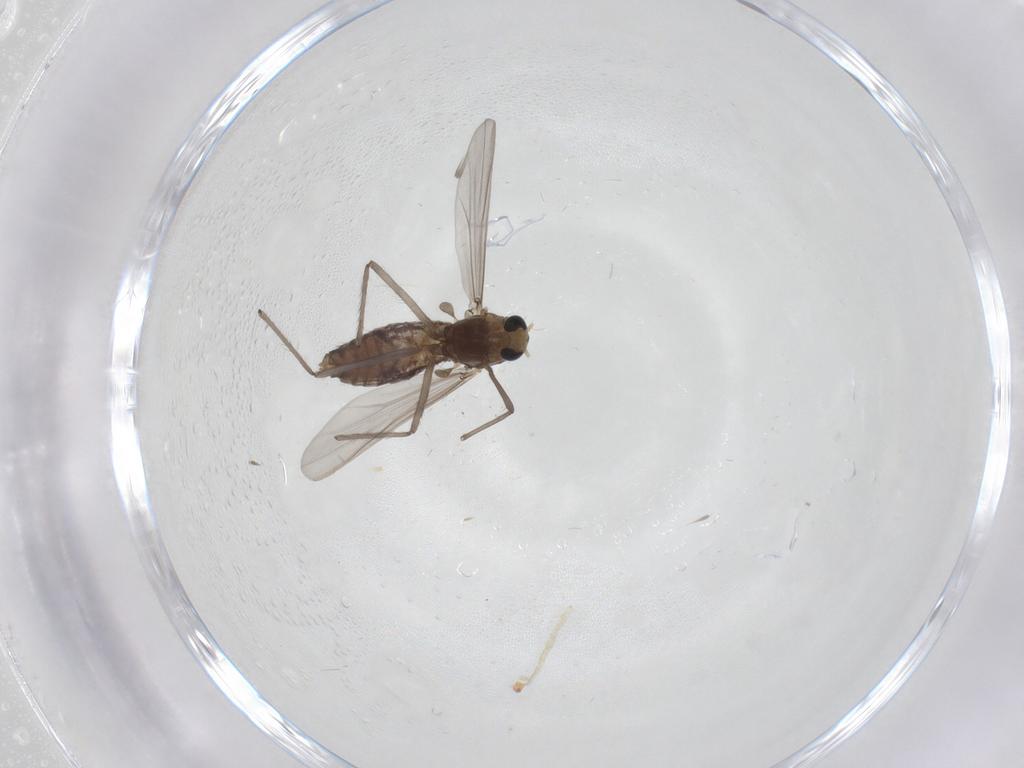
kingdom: Animalia
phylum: Arthropoda
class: Insecta
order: Diptera
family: Chironomidae
